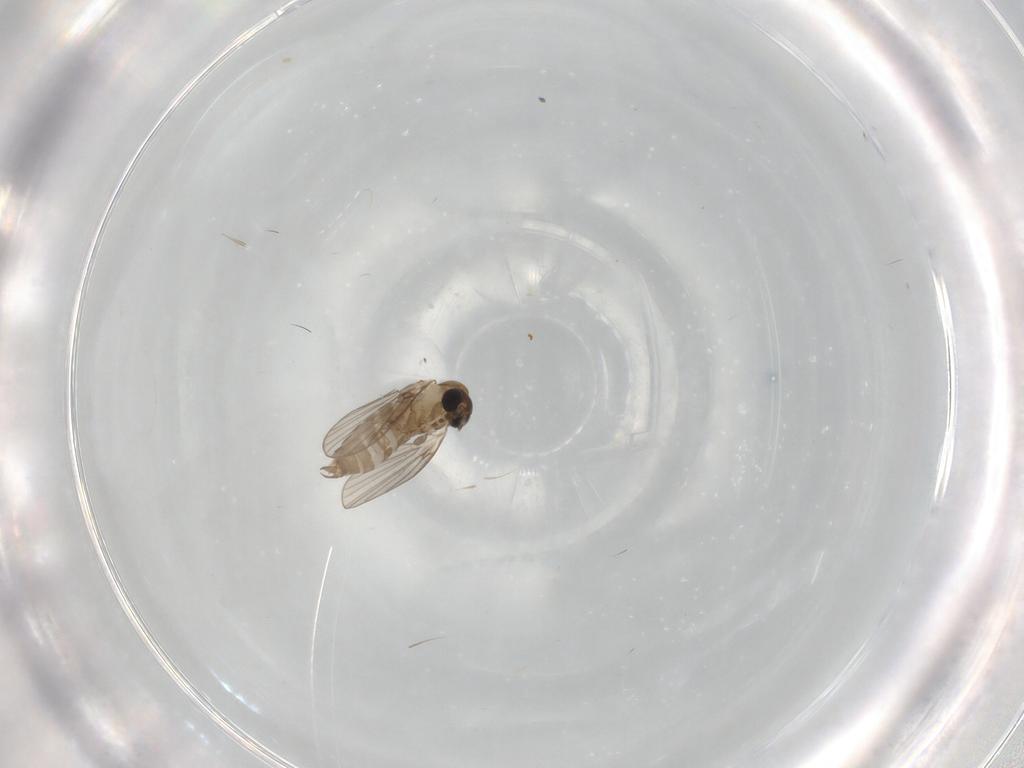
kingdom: Animalia
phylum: Arthropoda
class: Insecta
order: Diptera
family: Psychodidae
